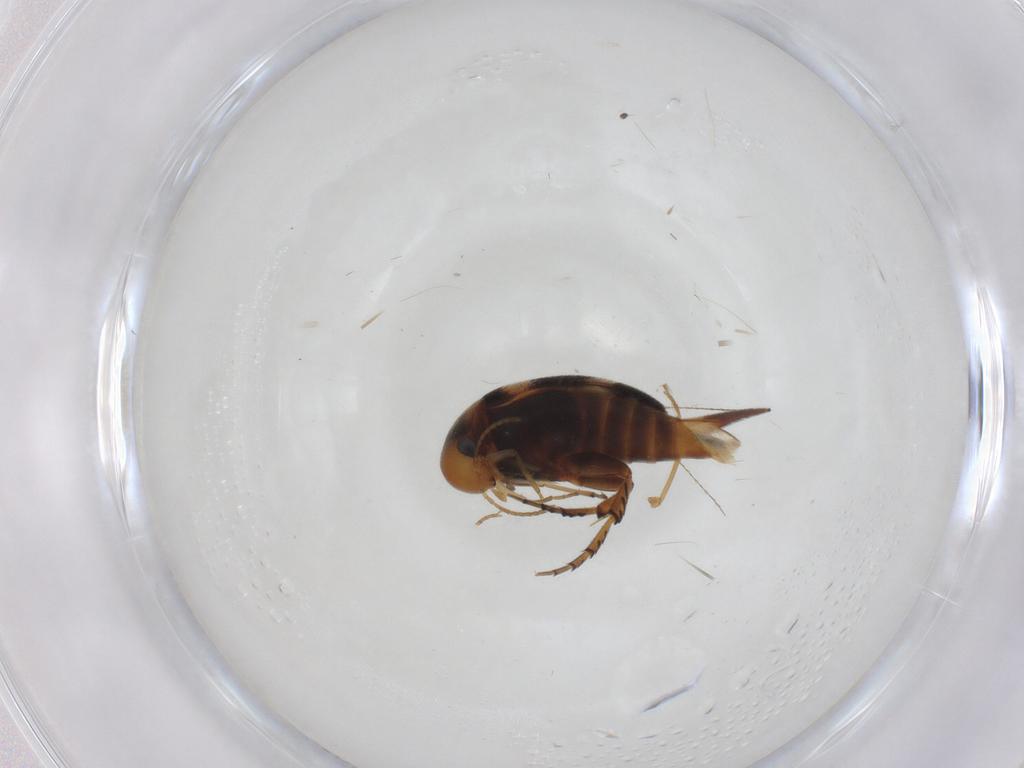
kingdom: Animalia
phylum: Arthropoda
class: Insecta
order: Coleoptera
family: Mordellidae
